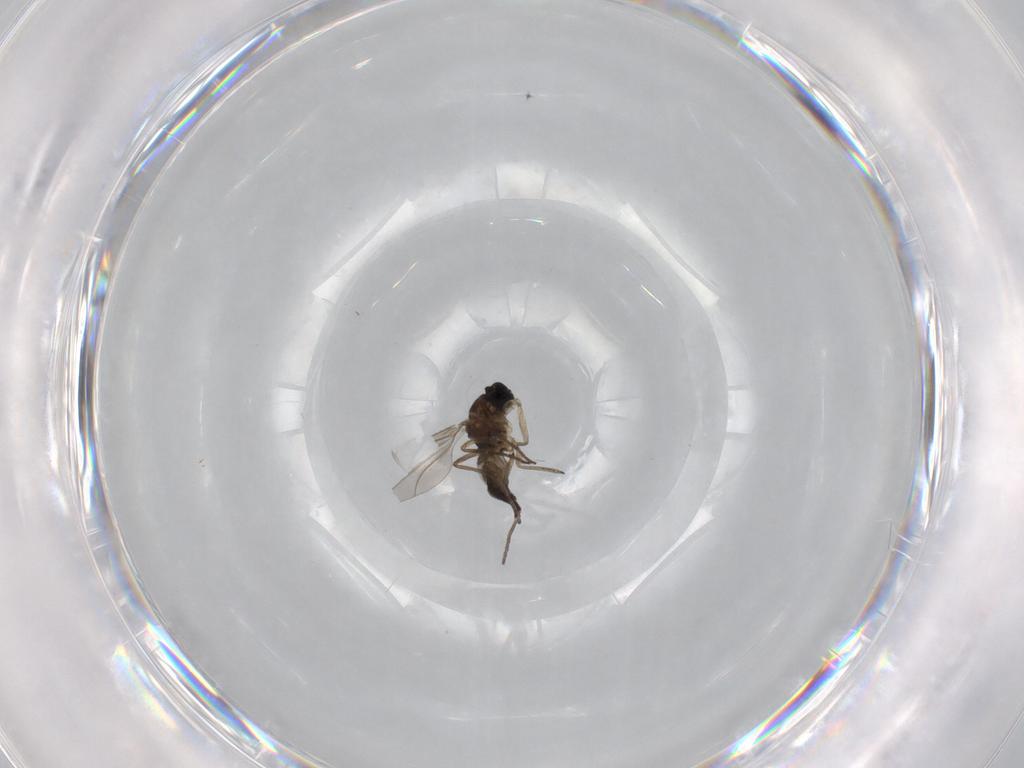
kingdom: Animalia
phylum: Arthropoda
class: Insecta
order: Diptera
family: Sciaridae
